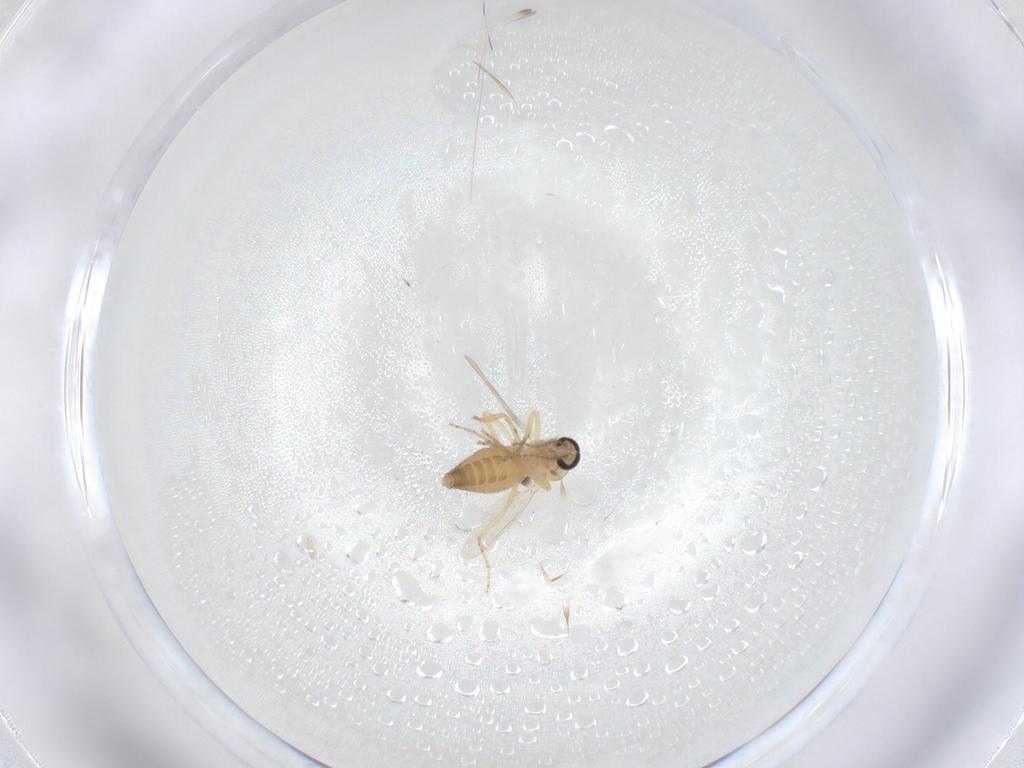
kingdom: Animalia
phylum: Arthropoda
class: Insecta
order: Diptera
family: Ceratopogonidae
